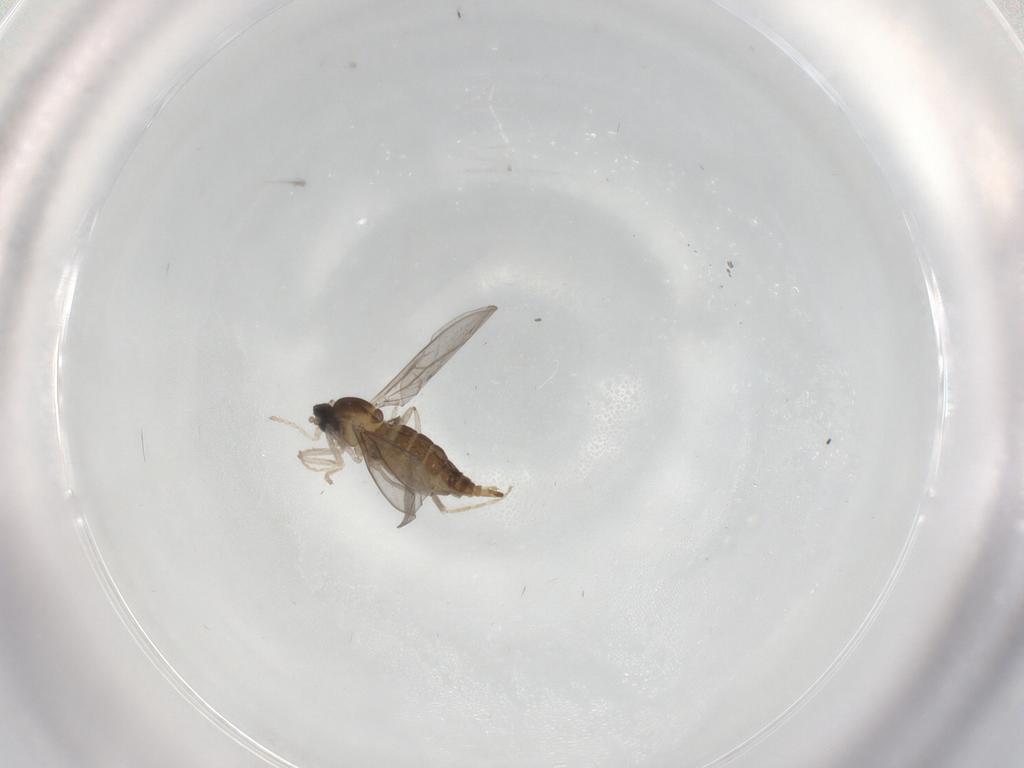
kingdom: Animalia
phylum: Arthropoda
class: Insecta
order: Diptera
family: Cecidomyiidae
